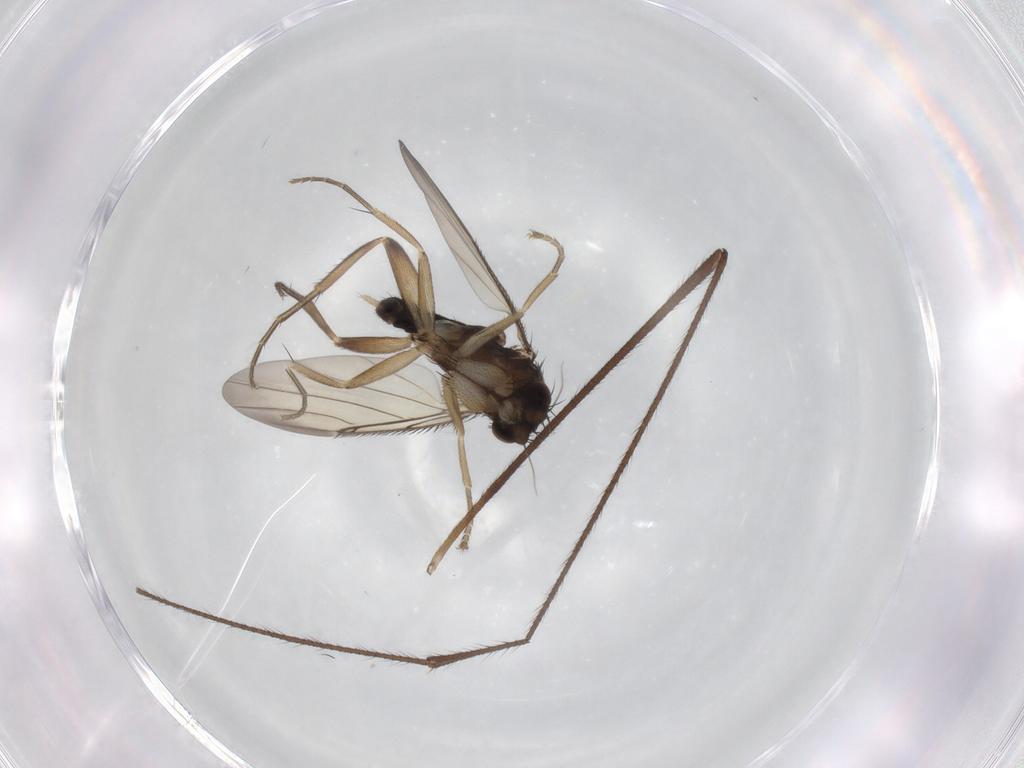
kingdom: Animalia
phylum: Arthropoda
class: Insecta
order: Diptera
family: Phoridae
